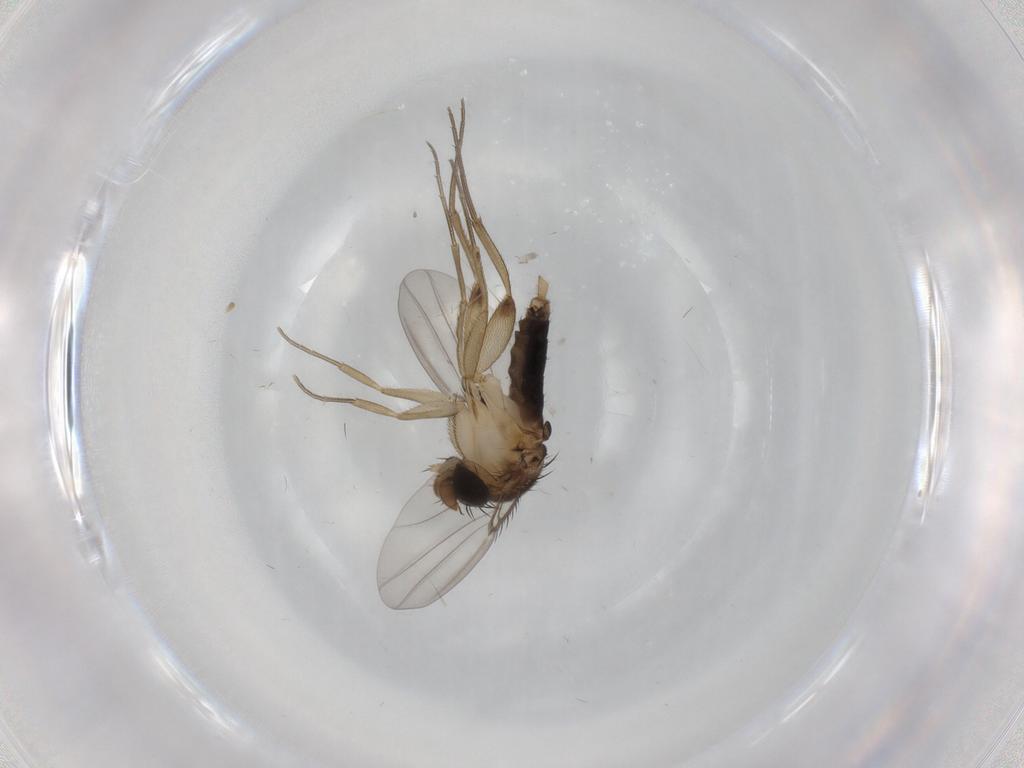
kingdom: Animalia
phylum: Arthropoda
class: Insecta
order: Diptera
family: Phoridae
